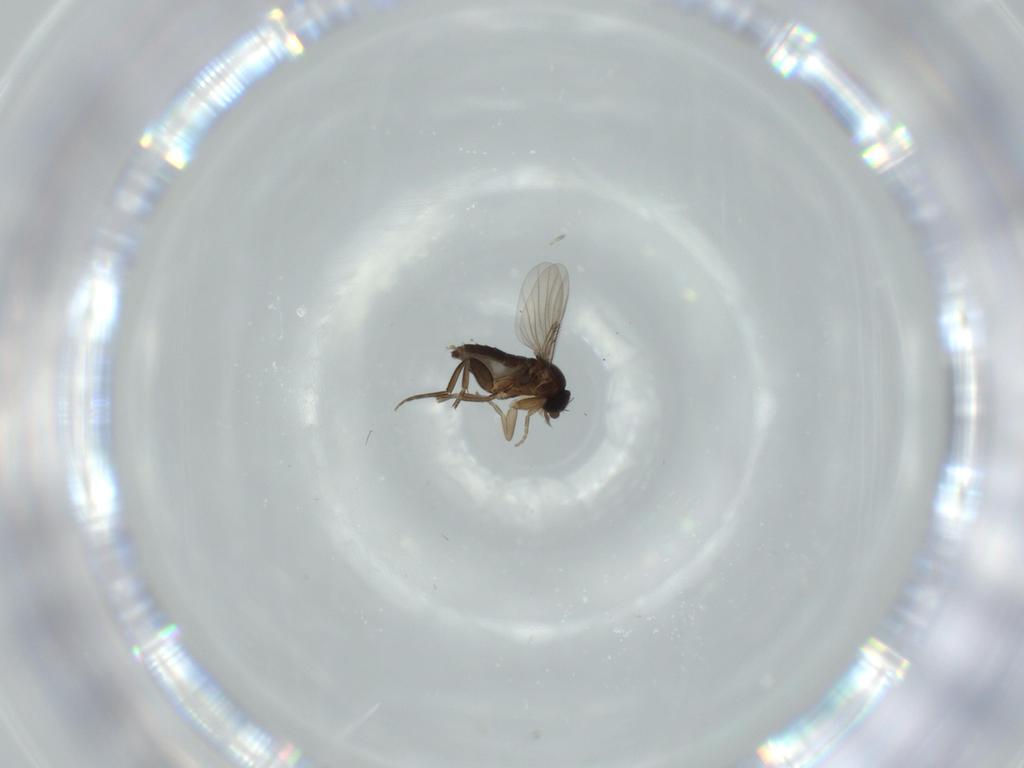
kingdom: Animalia
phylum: Arthropoda
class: Insecta
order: Diptera
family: Phoridae
